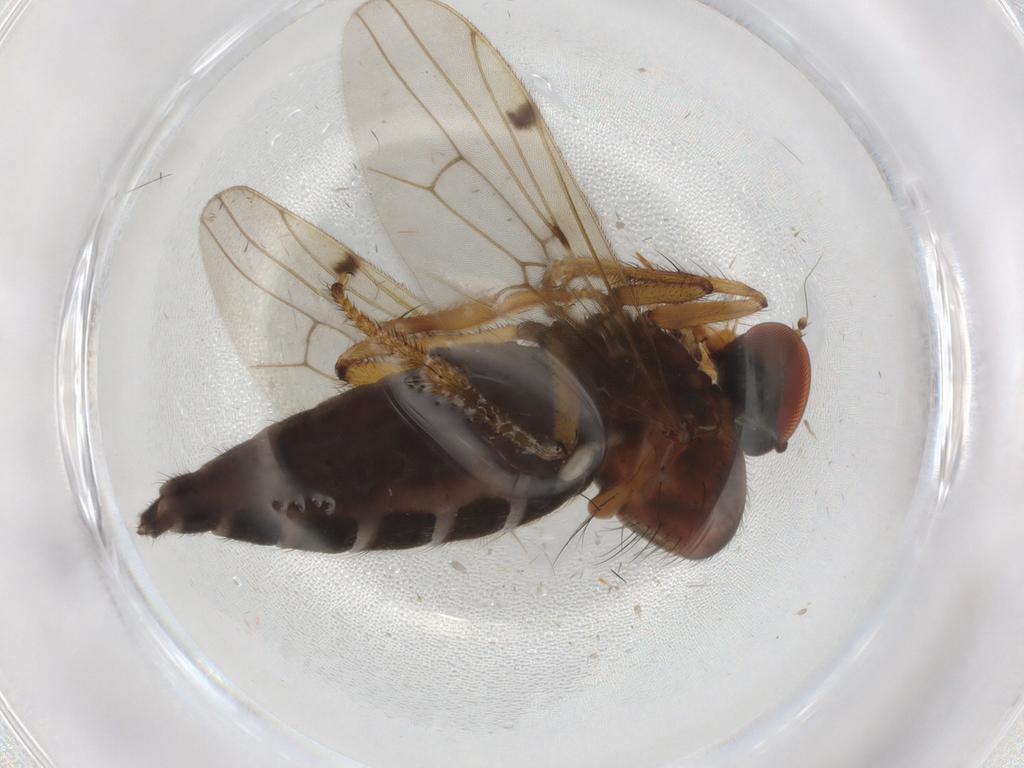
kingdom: Animalia
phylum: Arthropoda
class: Insecta
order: Diptera
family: Hybotidae
